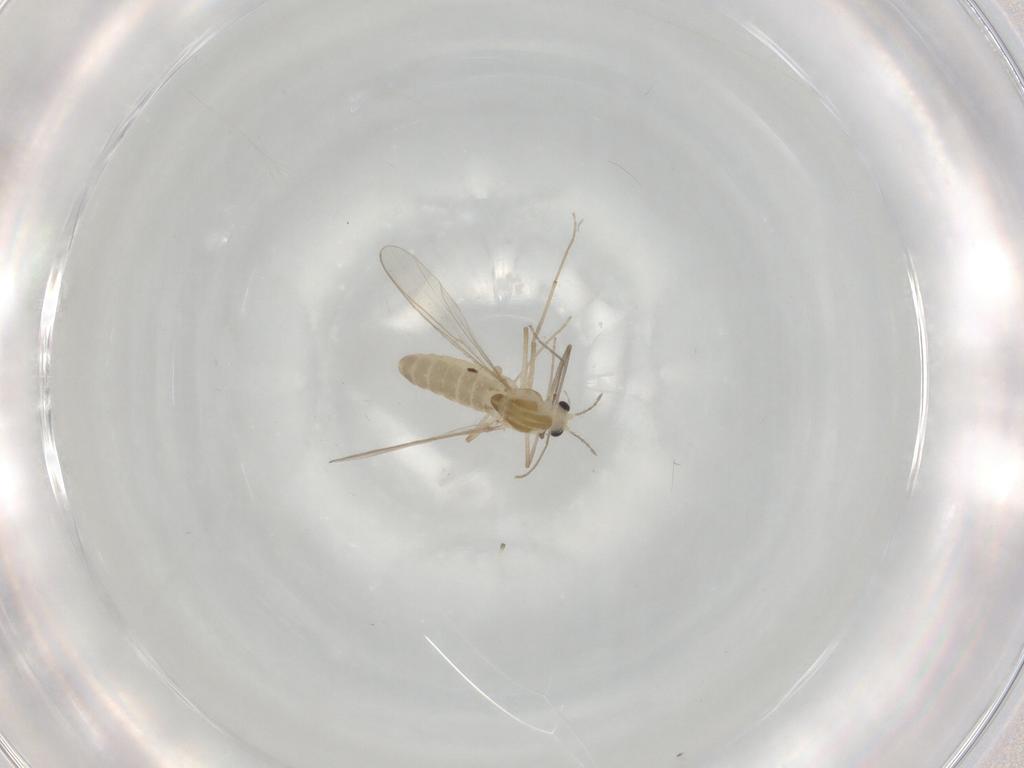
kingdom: Animalia
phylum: Arthropoda
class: Insecta
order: Diptera
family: Chironomidae
